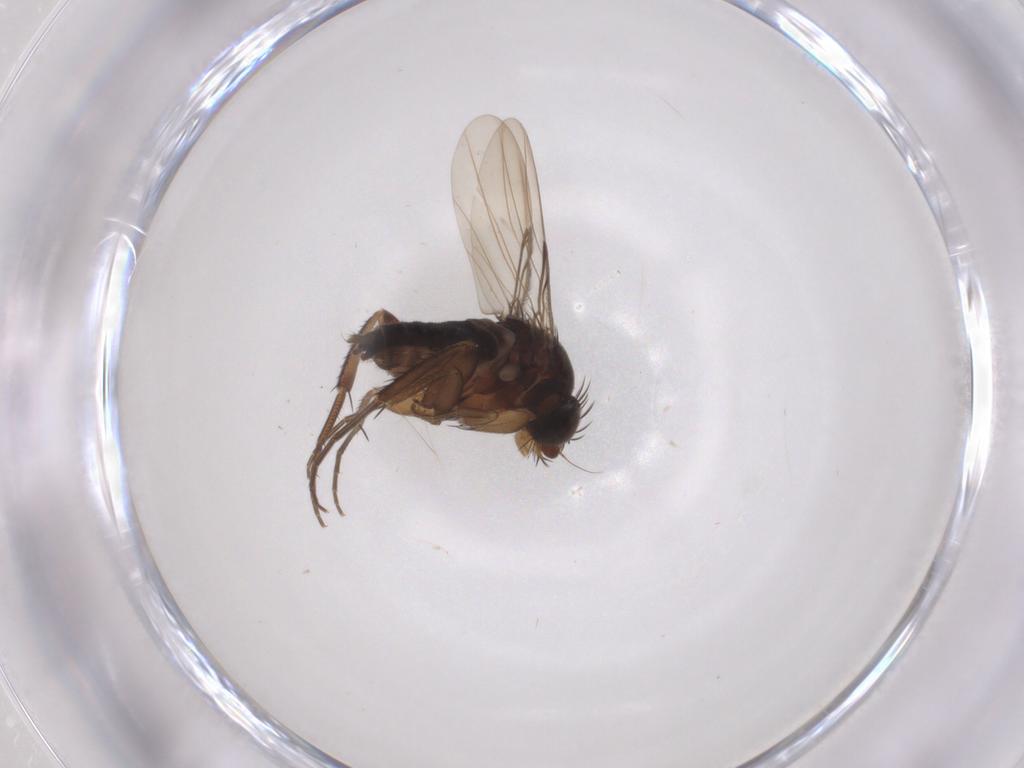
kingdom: Animalia
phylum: Arthropoda
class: Insecta
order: Diptera
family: Phoridae
